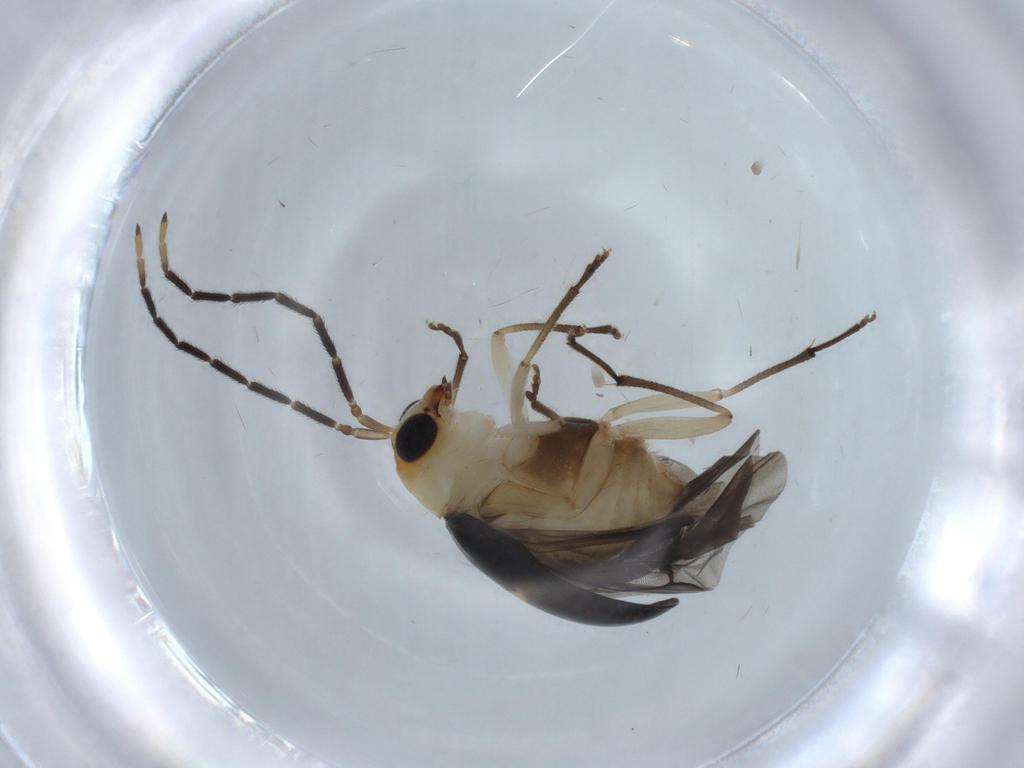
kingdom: Animalia
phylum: Arthropoda
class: Insecta
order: Coleoptera
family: Chrysomelidae
